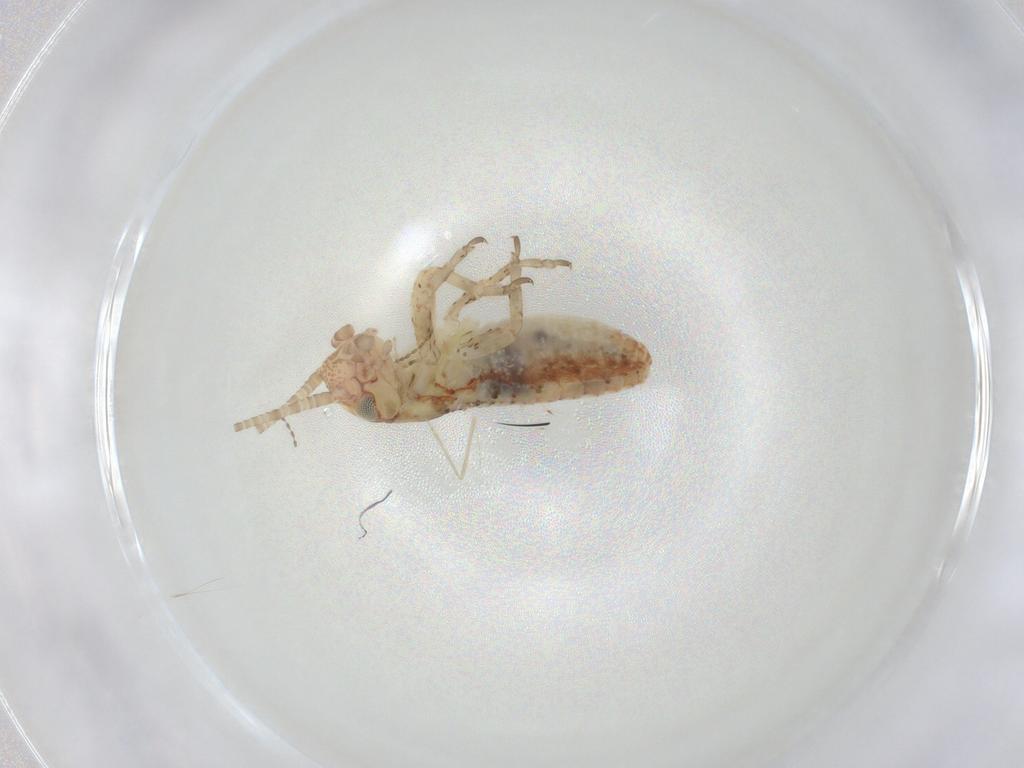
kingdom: Animalia
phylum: Arthropoda
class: Insecta
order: Orthoptera
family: Mogoplistidae
